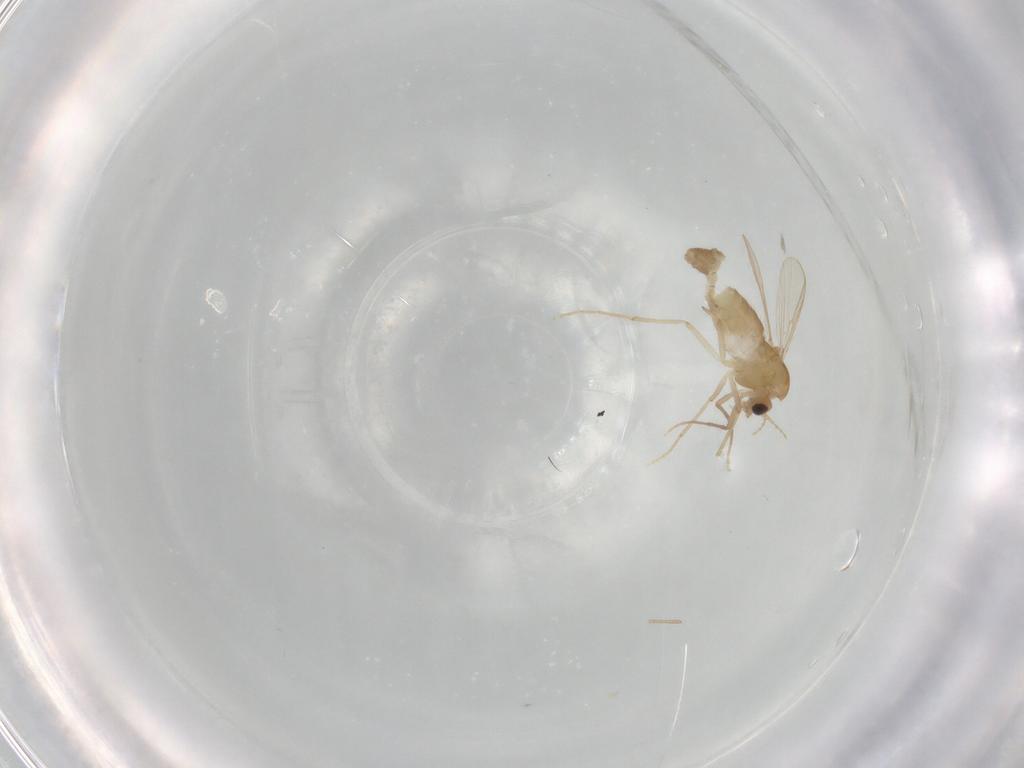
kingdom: Animalia
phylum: Arthropoda
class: Insecta
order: Diptera
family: Chironomidae
